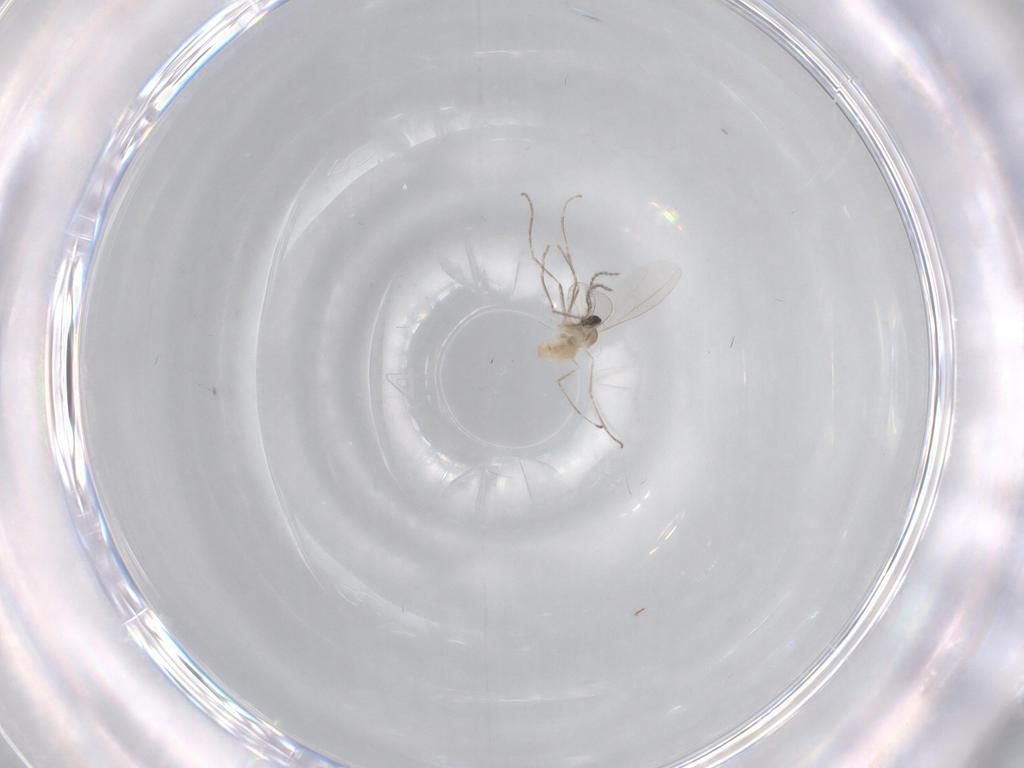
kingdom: Animalia
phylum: Arthropoda
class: Insecta
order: Diptera
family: Cecidomyiidae
